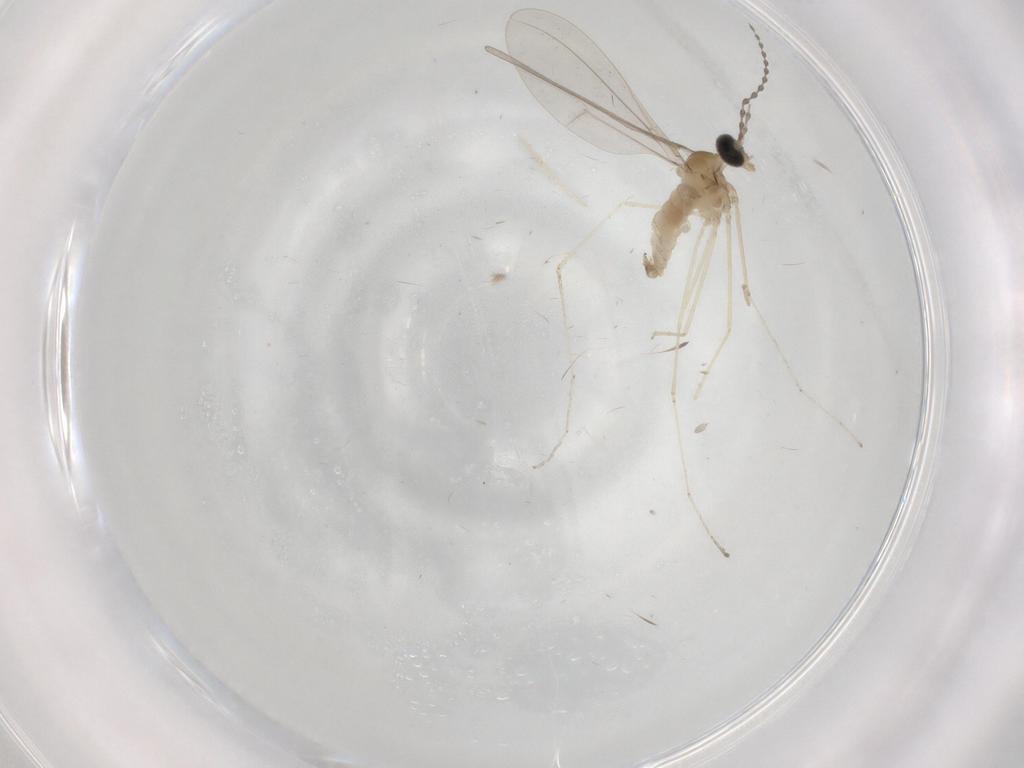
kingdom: Animalia
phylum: Arthropoda
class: Insecta
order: Diptera
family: Cecidomyiidae
